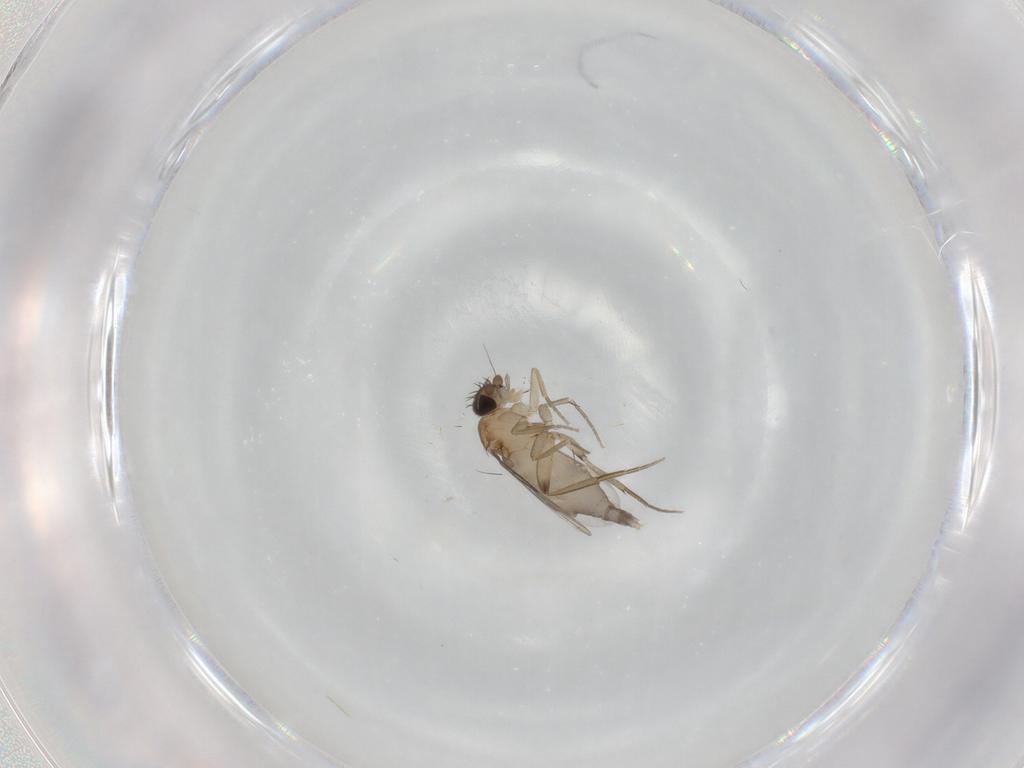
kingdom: Animalia
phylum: Arthropoda
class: Insecta
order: Diptera
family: Phoridae
